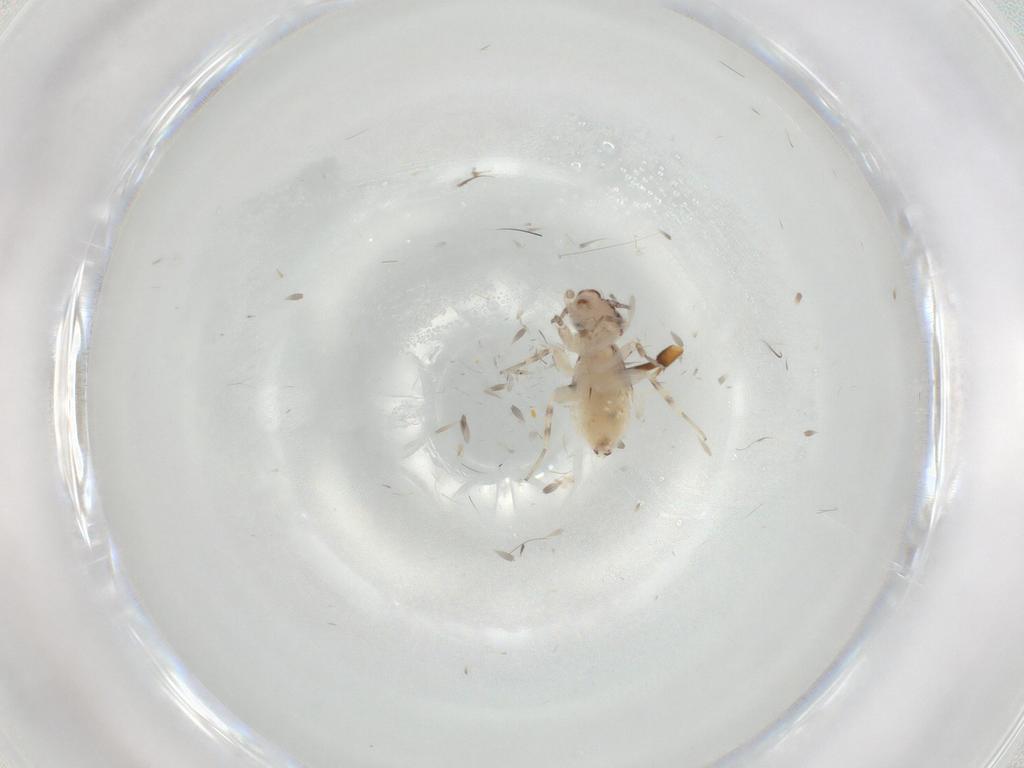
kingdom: Animalia
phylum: Arthropoda
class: Insecta
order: Psocodea
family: Lepidopsocidae
